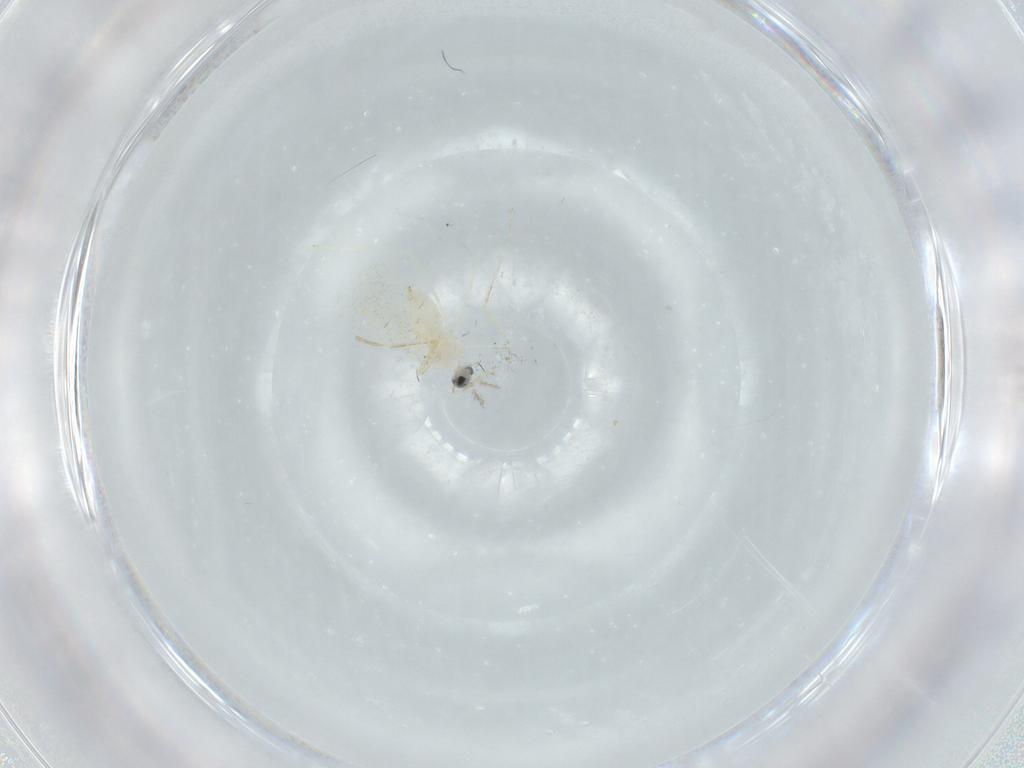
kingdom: Animalia
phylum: Arthropoda
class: Insecta
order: Diptera
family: Cecidomyiidae
